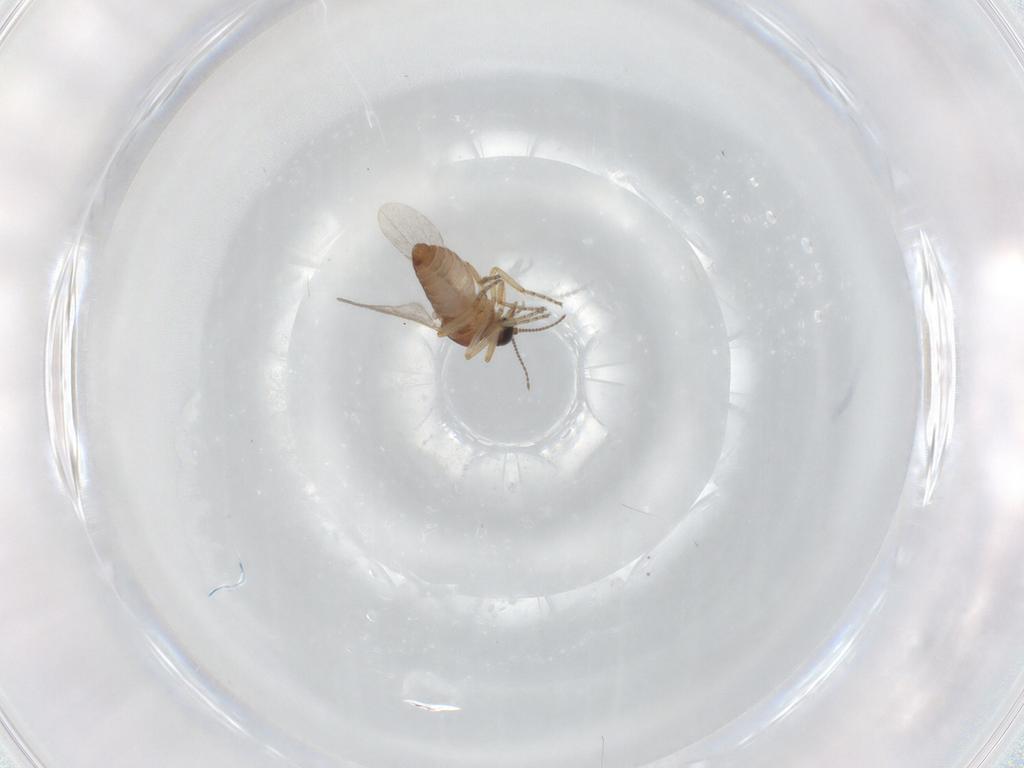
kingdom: Animalia
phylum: Arthropoda
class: Insecta
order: Diptera
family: Ceratopogonidae
